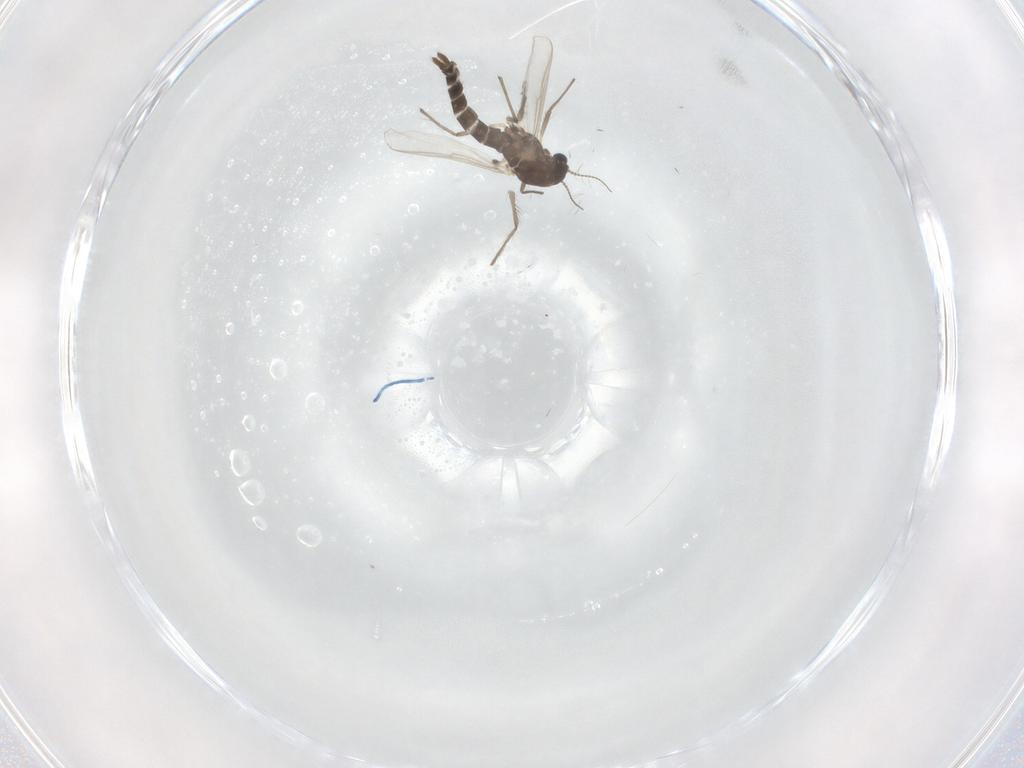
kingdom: Animalia
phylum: Arthropoda
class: Insecta
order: Diptera
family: Chironomidae
